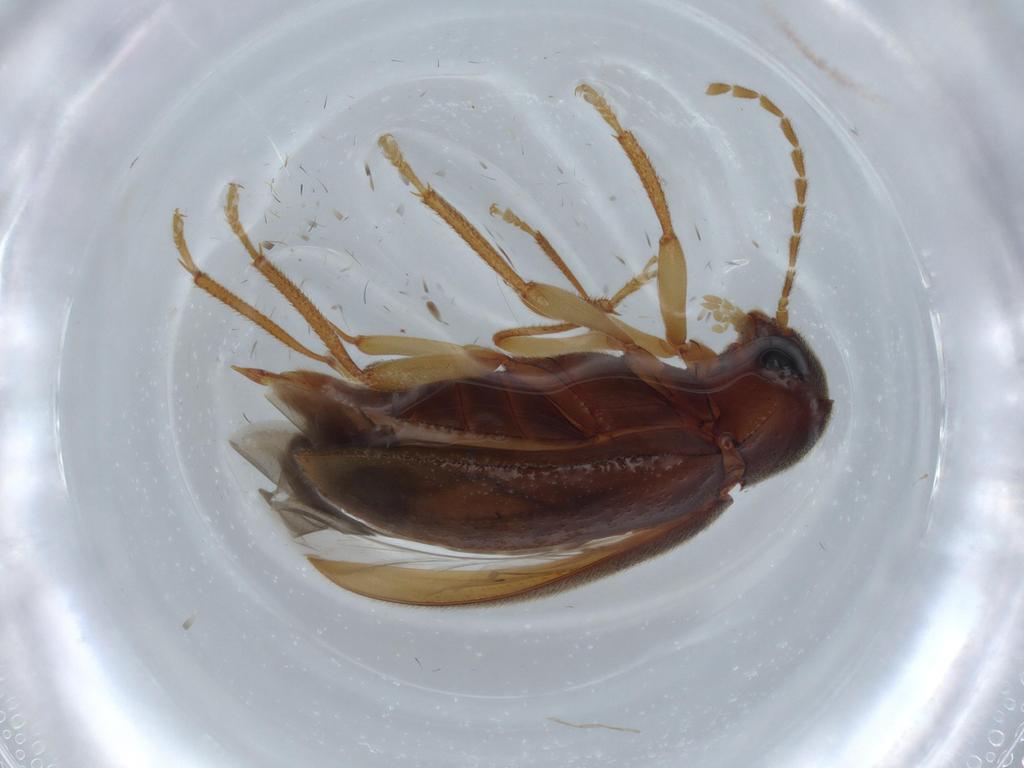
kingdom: Animalia
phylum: Arthropoda
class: Insecta
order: Coleoptera
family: Ptilodactylidae
